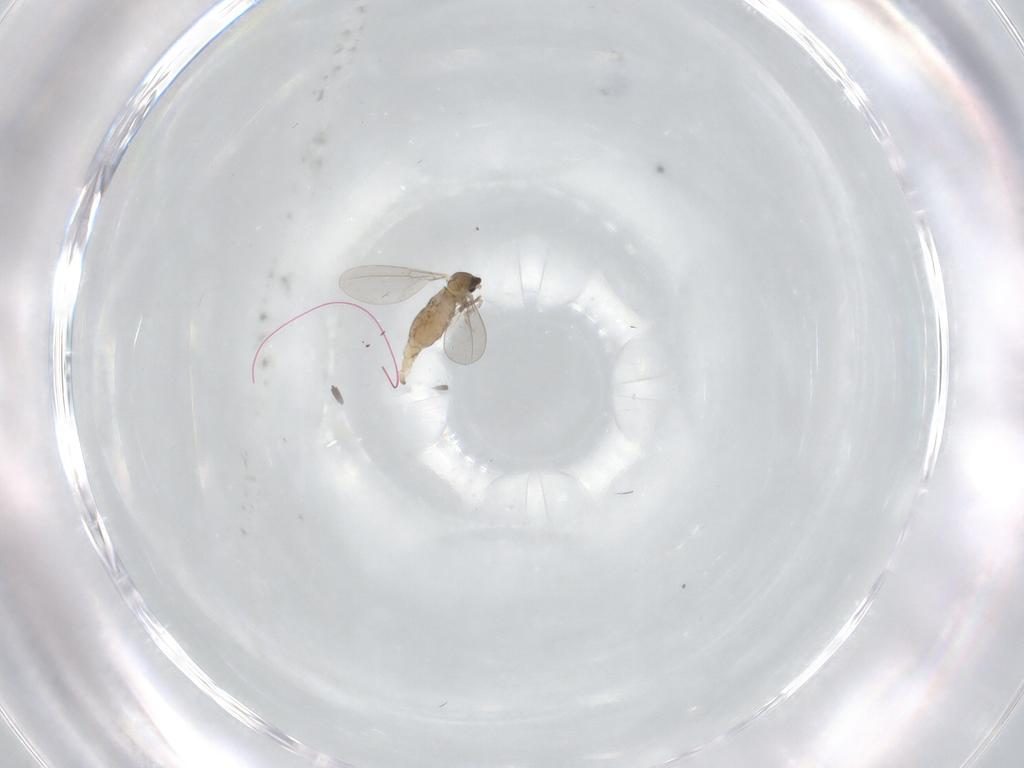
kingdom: Animalia
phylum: Arthropoda
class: Insecta
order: Diptera
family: Cecidomyiidae
